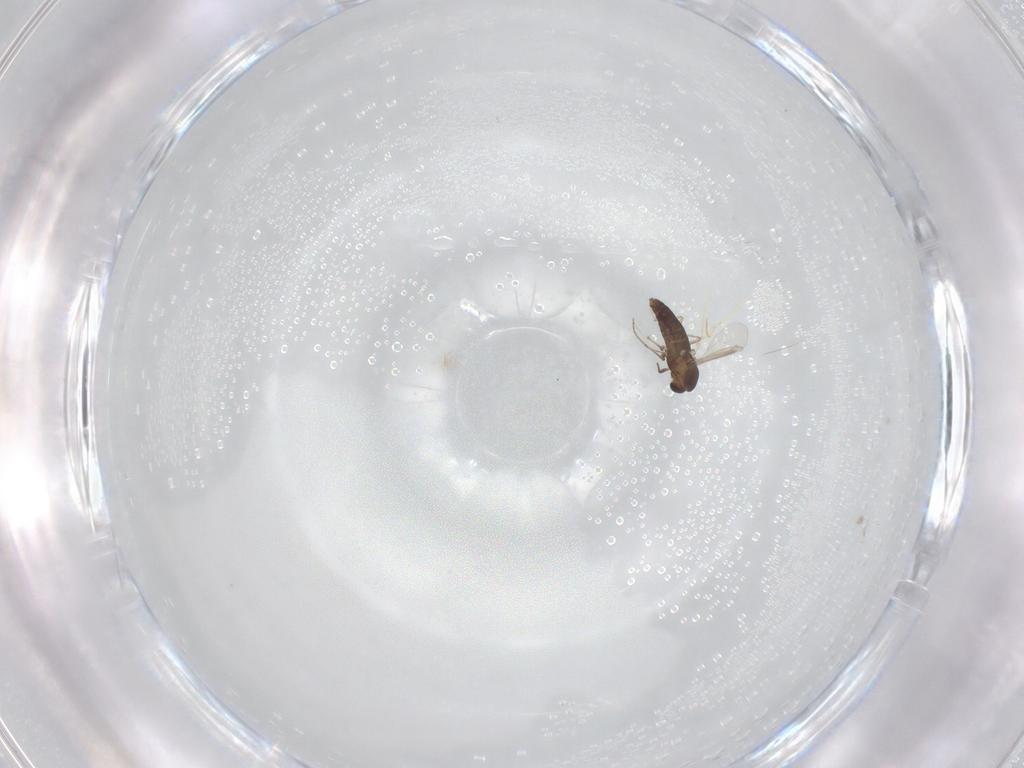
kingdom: Animalia
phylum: Arthropoda
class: Insecta
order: Diptera
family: Chironomidae
